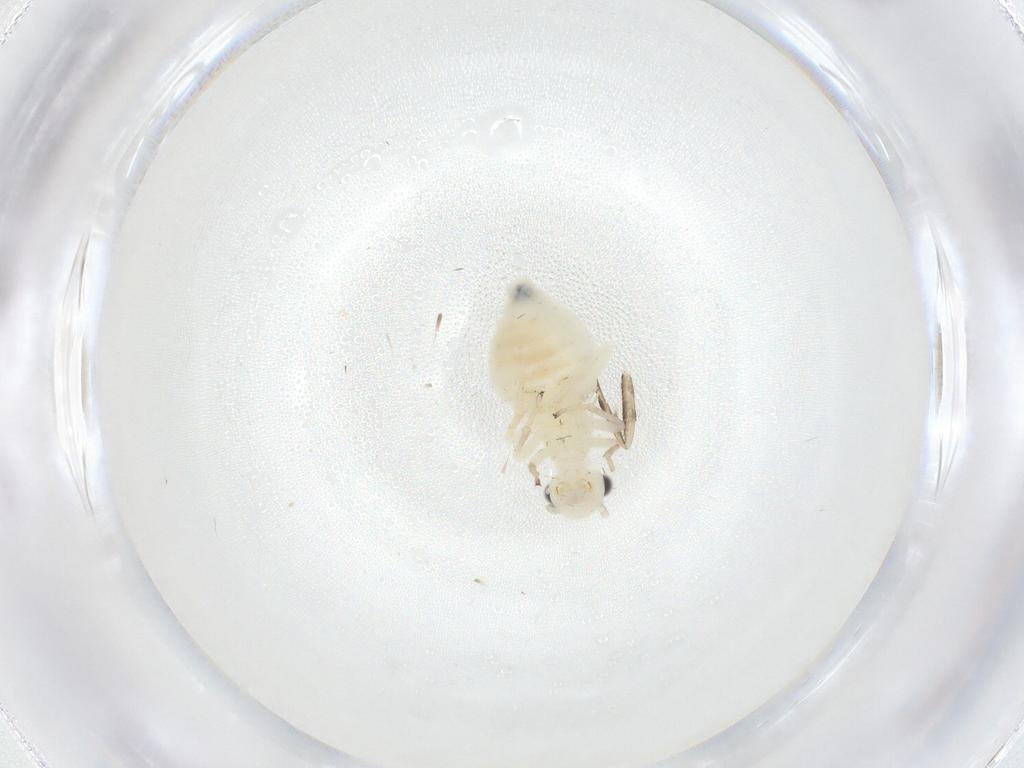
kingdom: Animalia
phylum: Arthropoda
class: Insecta
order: Psocodea
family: Caeciliusidae
